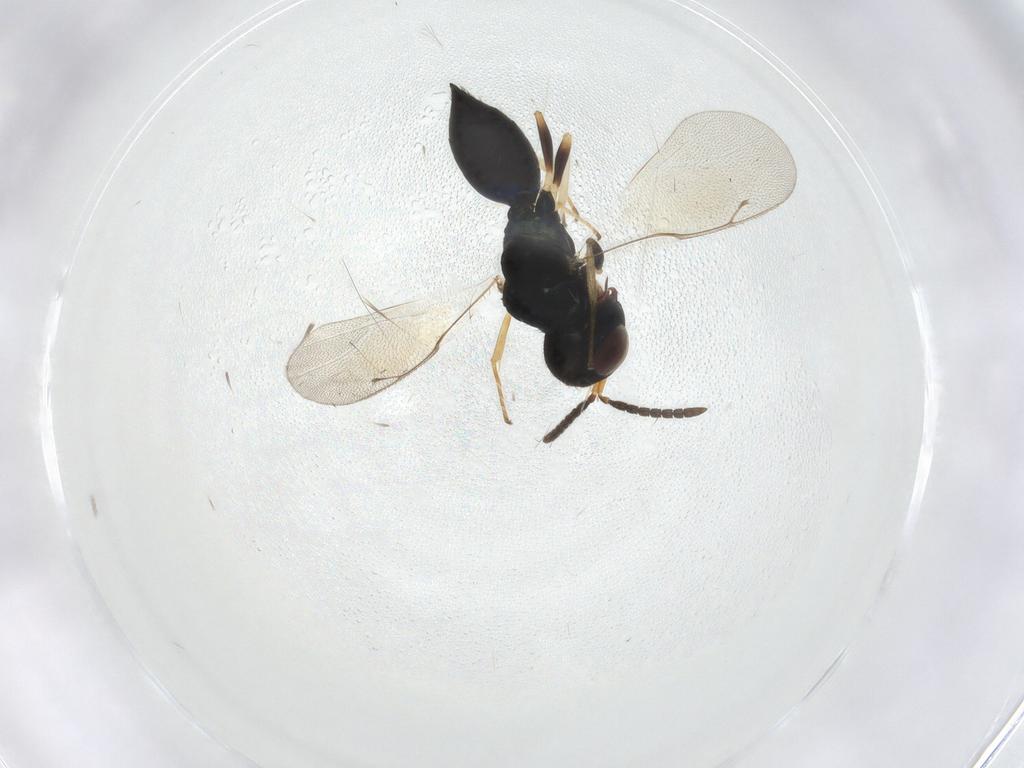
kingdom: Animalia
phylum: Arthropoda
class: Insecta
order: Hymenoptera
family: Pteromalidae
